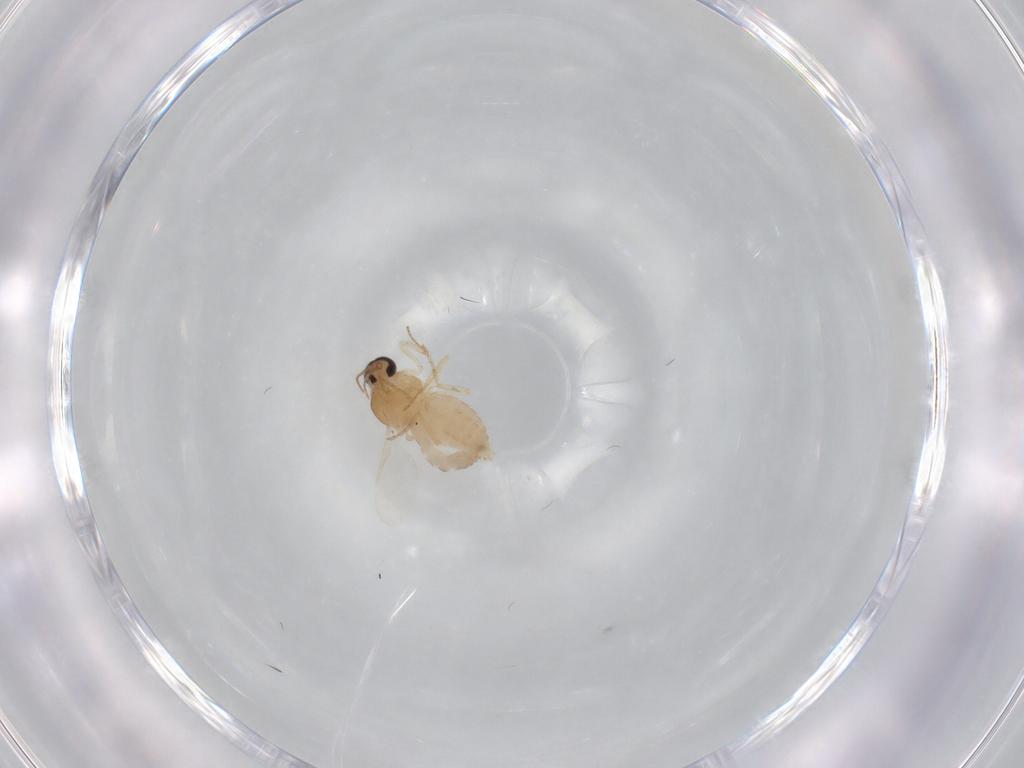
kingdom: Animalia
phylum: Arthropoda
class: Insecta
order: Diptera
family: Ceratopogonidae
